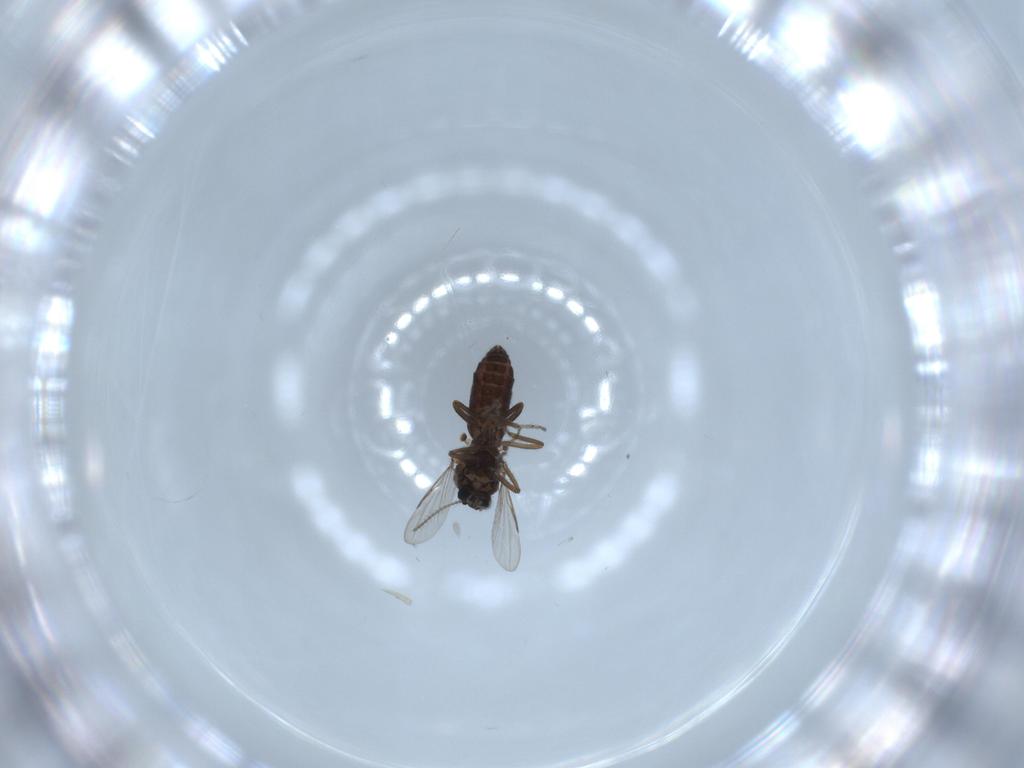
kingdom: Animalia
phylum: Arthropoda
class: Insecta
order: Diptera
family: Ceratopogonidae
